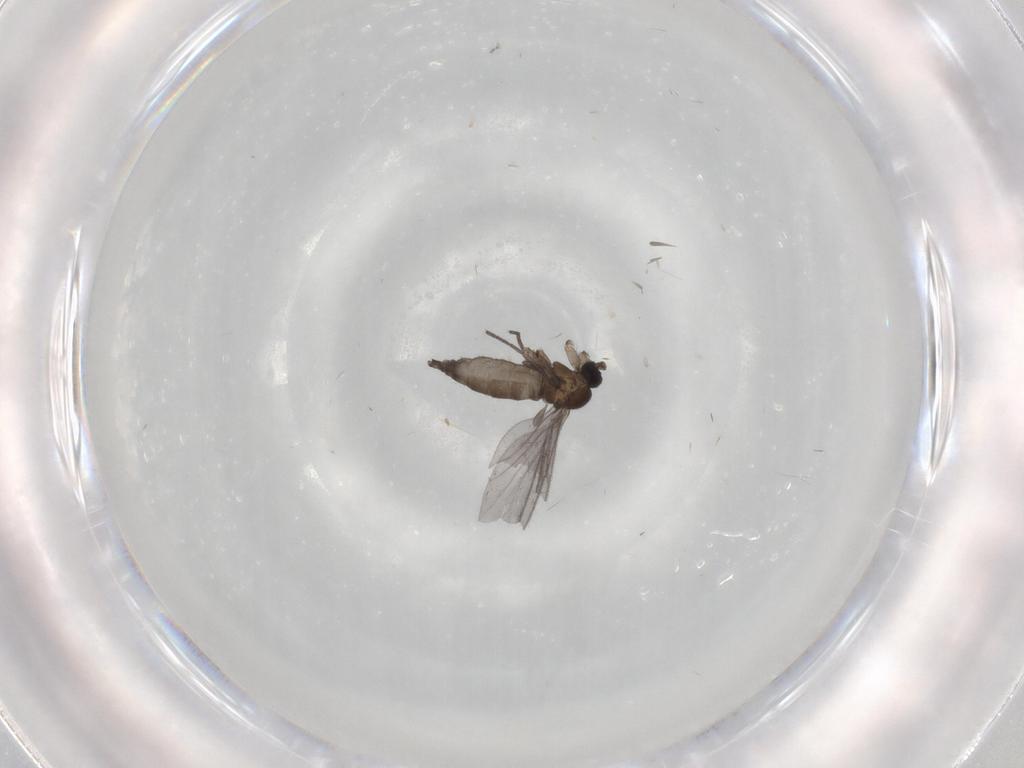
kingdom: Animalia
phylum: Arthropoda
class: Insecta
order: Diptera
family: Sciaridae
